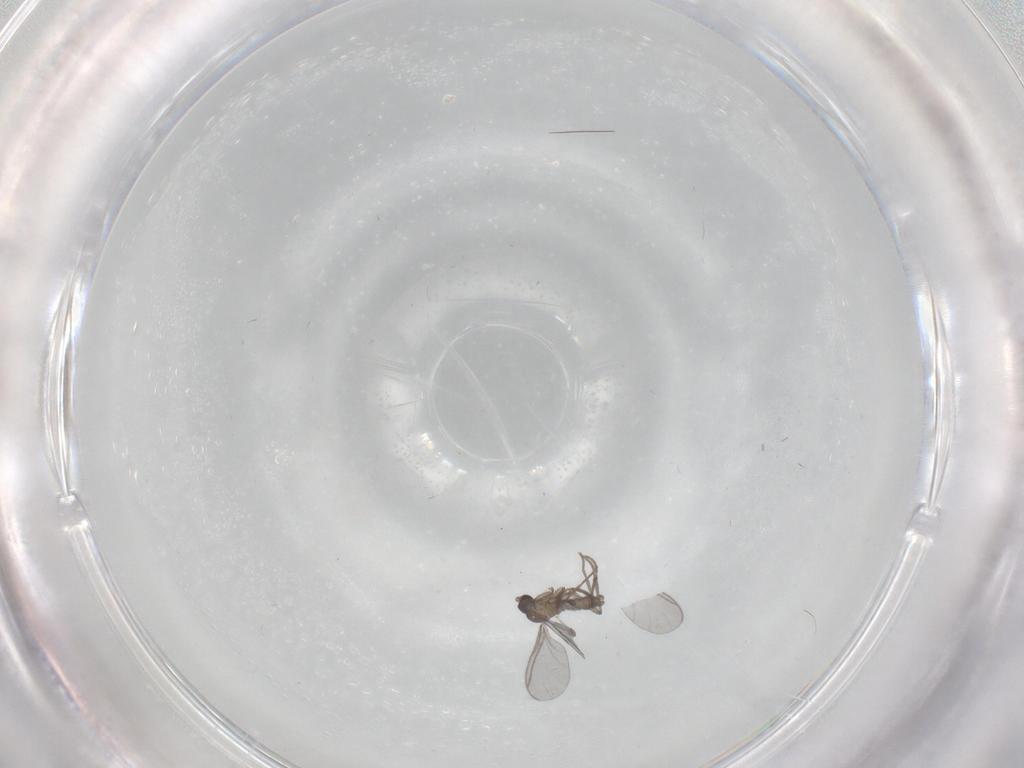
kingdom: Animalia
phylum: Arthropoda
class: Insecta
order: Diptera
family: Sciaridae
